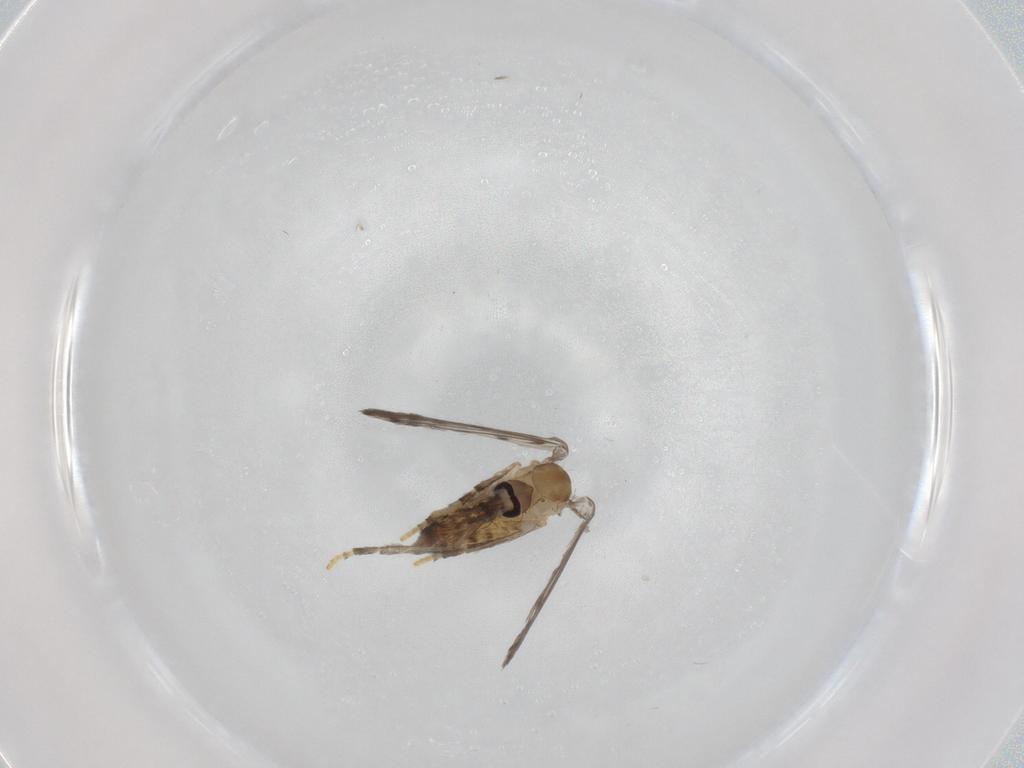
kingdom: Animalia
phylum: Arthropoda
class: Insecta
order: Diptera
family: Psychodidae
